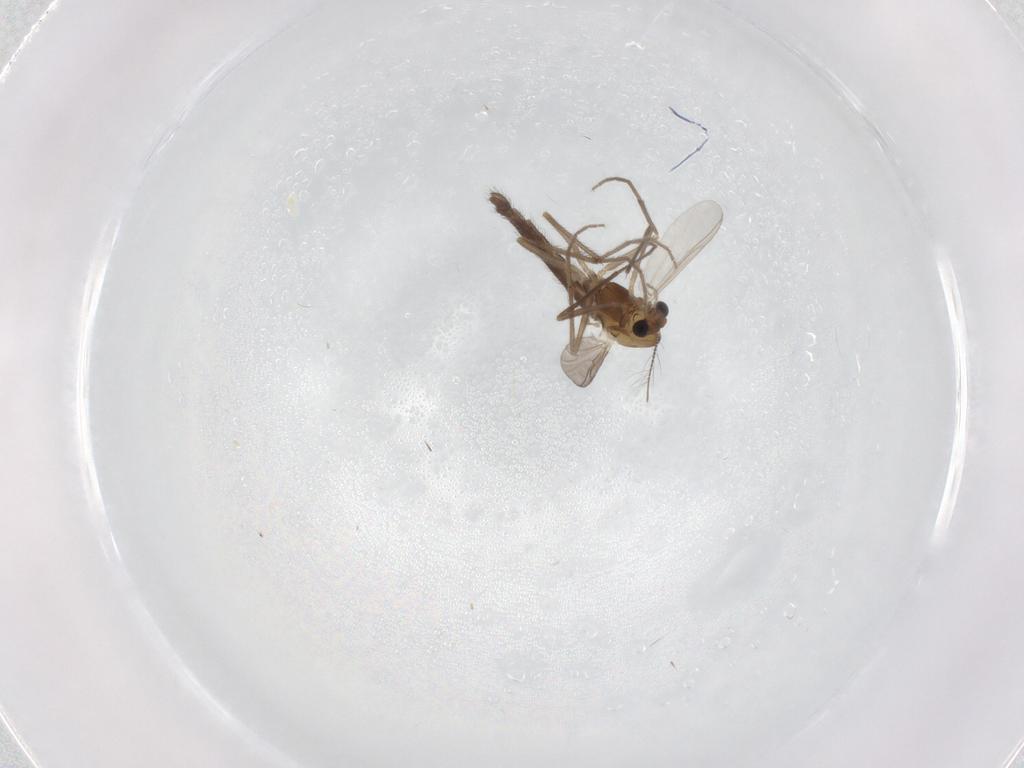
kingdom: Animalia
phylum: Arthropoda
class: Insecta
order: Diptera
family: Chironomidae
